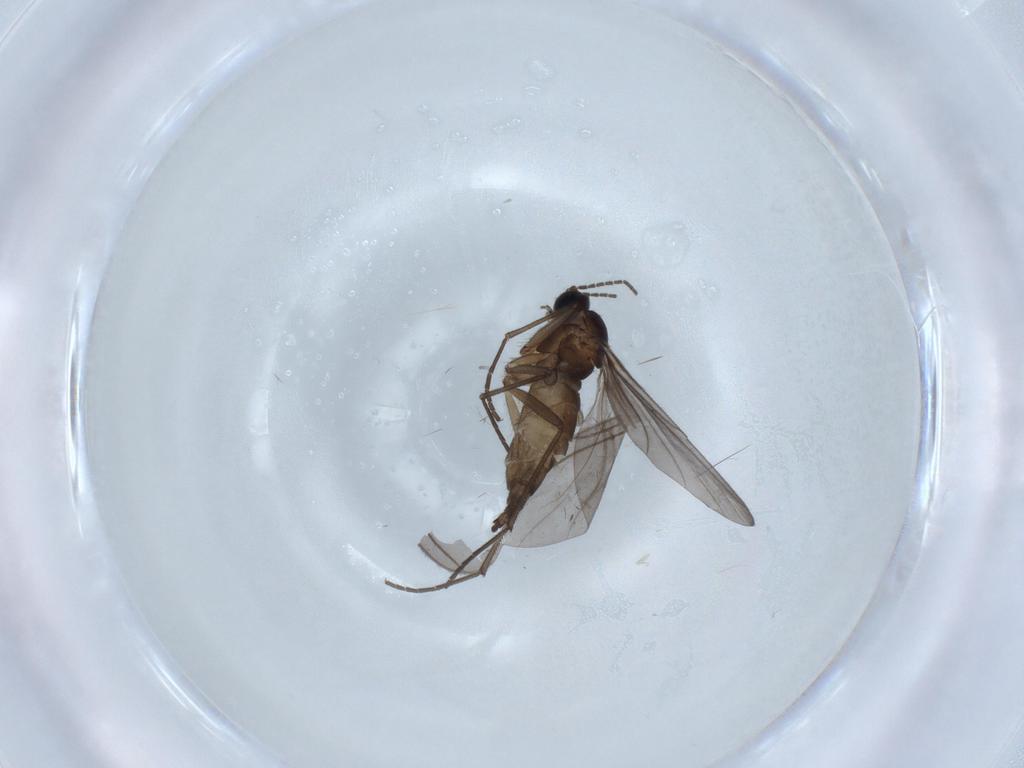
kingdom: Animalia
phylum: Arthropoda
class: Insecta
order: Diptera
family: Sciaridae
